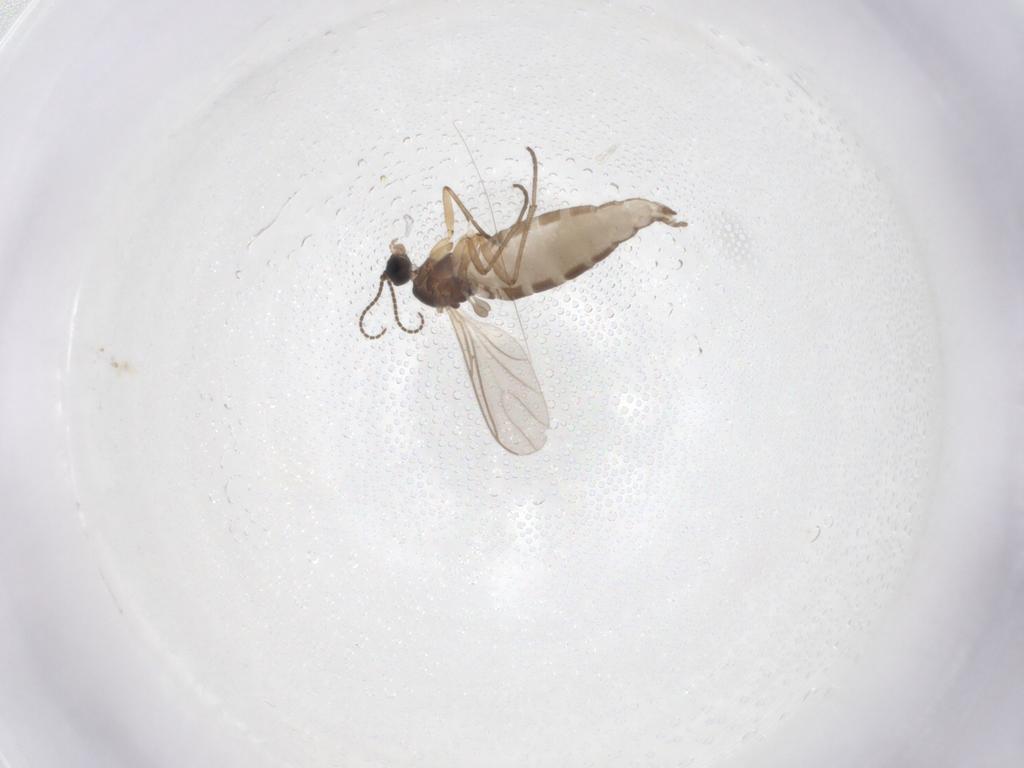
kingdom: Animalia
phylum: Arthropoda
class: Insecta
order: Diptera
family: Sciaridae
